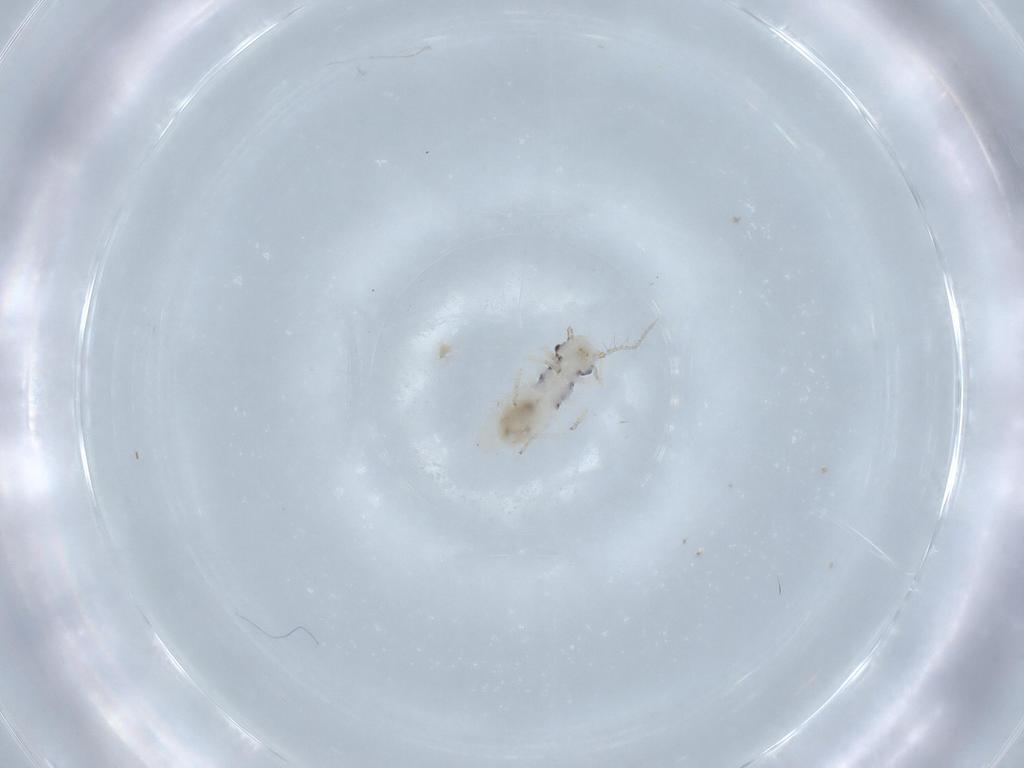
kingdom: Animalia
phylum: Arthropoda
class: Insecta
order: Psocodea
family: Pseudocaeciliidae
